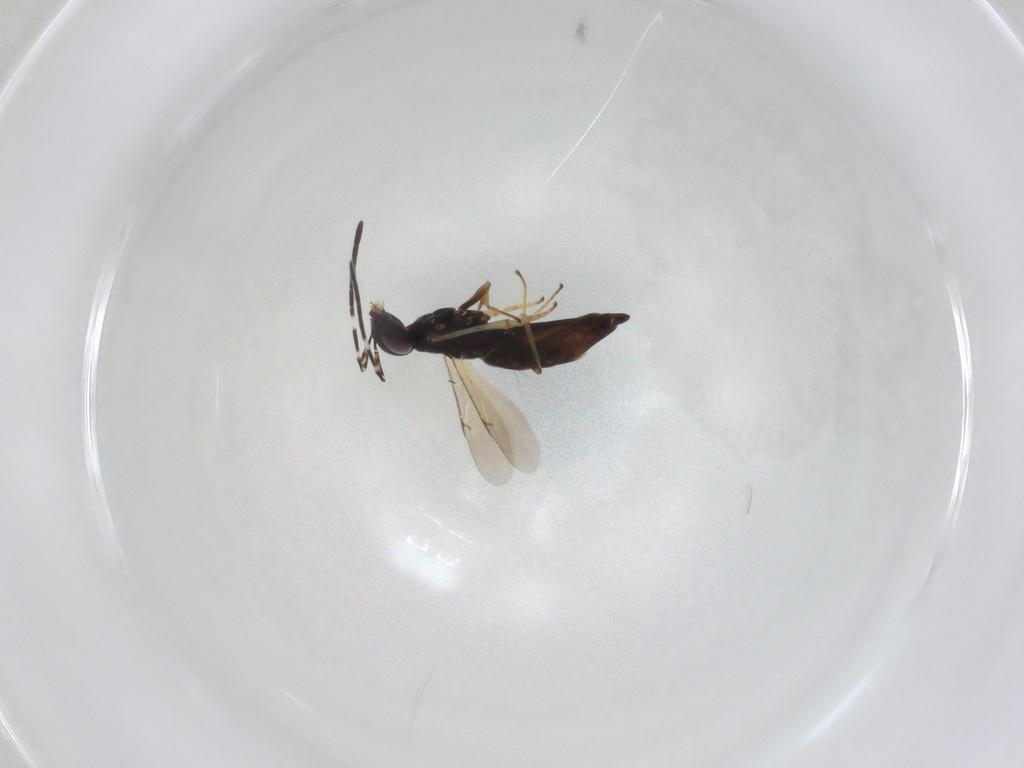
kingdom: Animalia
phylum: Arthropoda
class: Insecta
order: Hymenoptera
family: Braconidae
